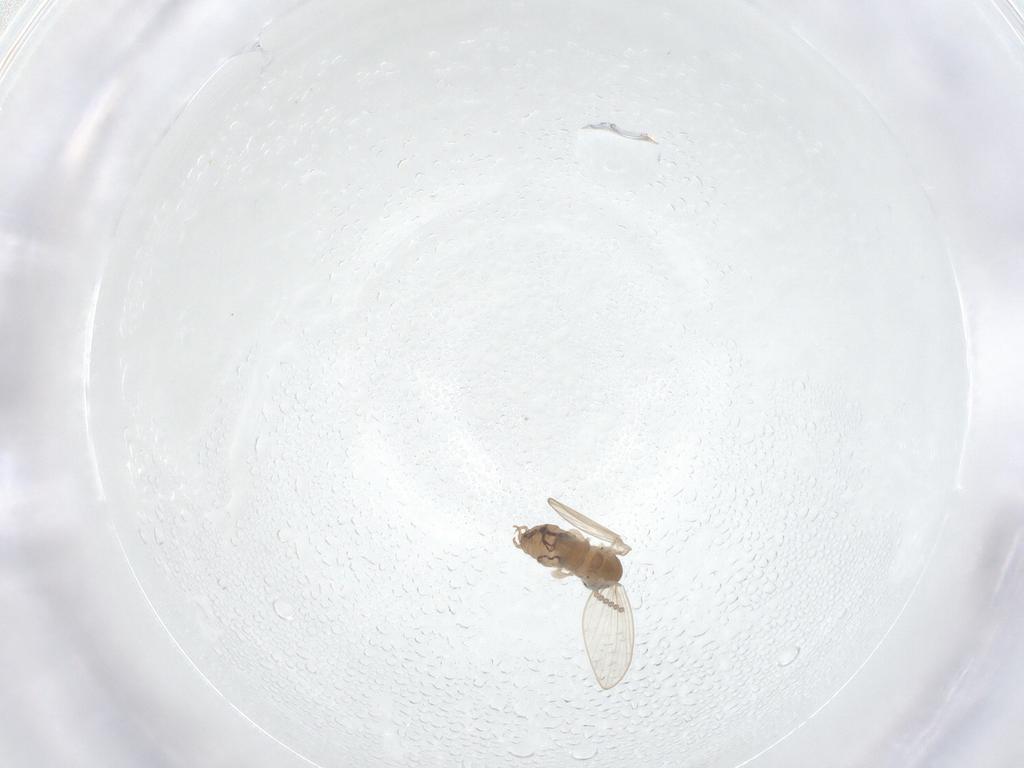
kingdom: Animalia
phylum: Arthropoda
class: Insecta
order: Diptera
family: Psychodidae
